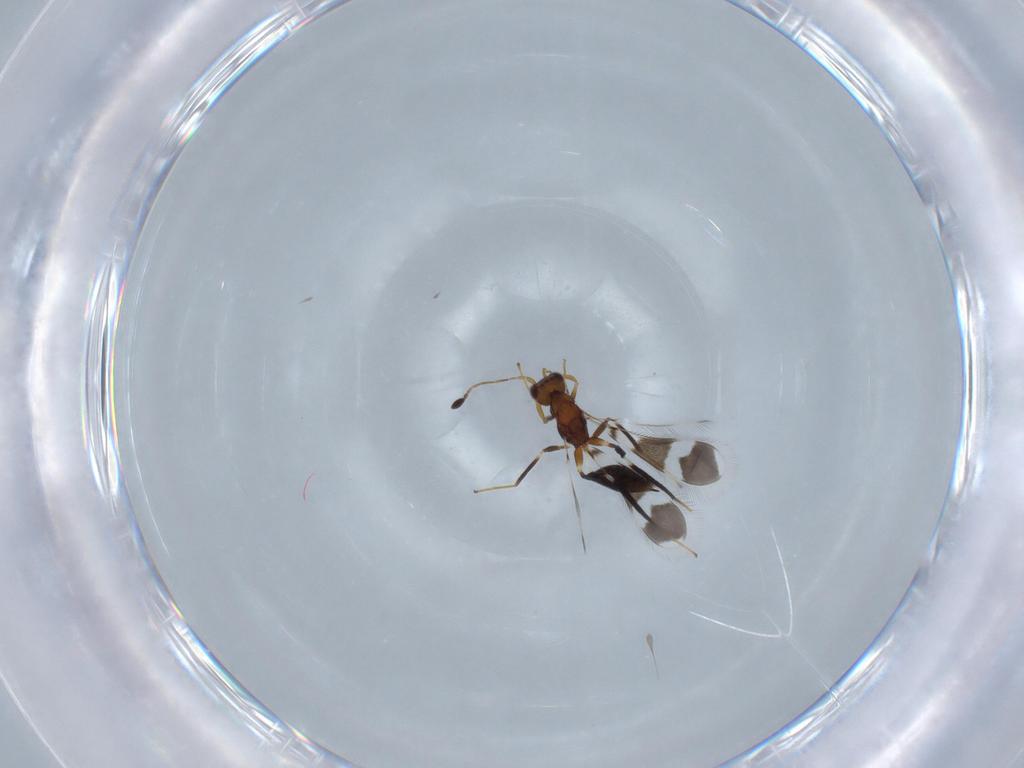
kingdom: Animalia
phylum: Arthropoda
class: Insecta
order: Hymenoptera
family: Mymaridae
